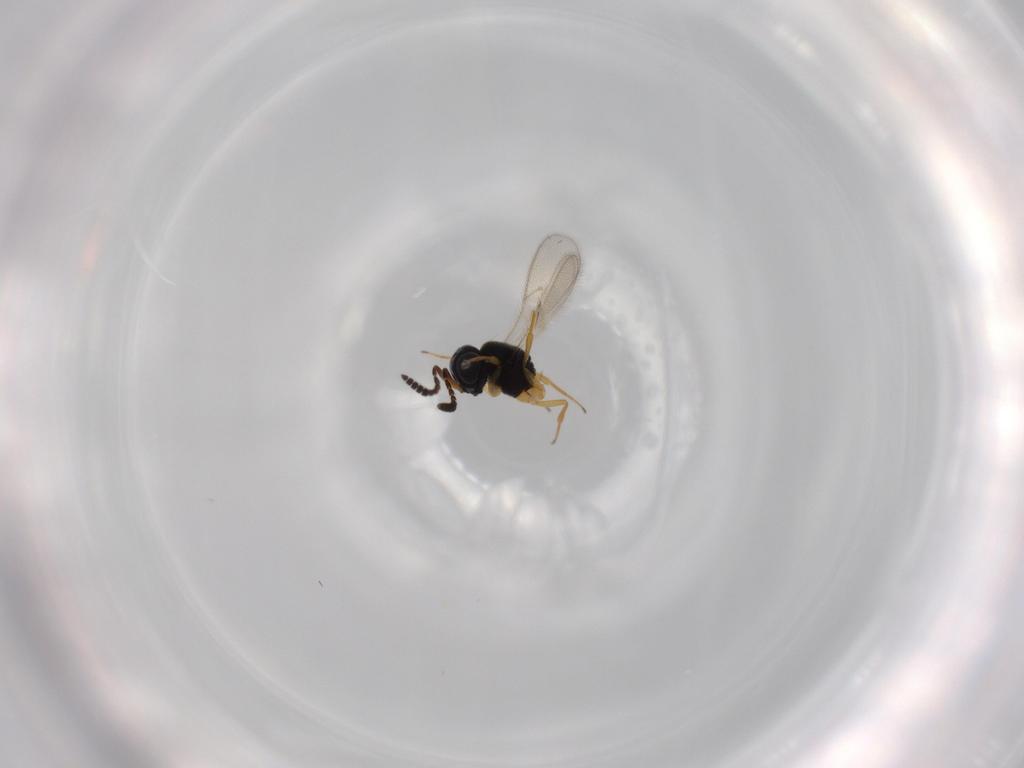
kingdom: Animalia
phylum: Arthropoda
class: Insecta
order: Hymenoptera
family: Scelionidae
